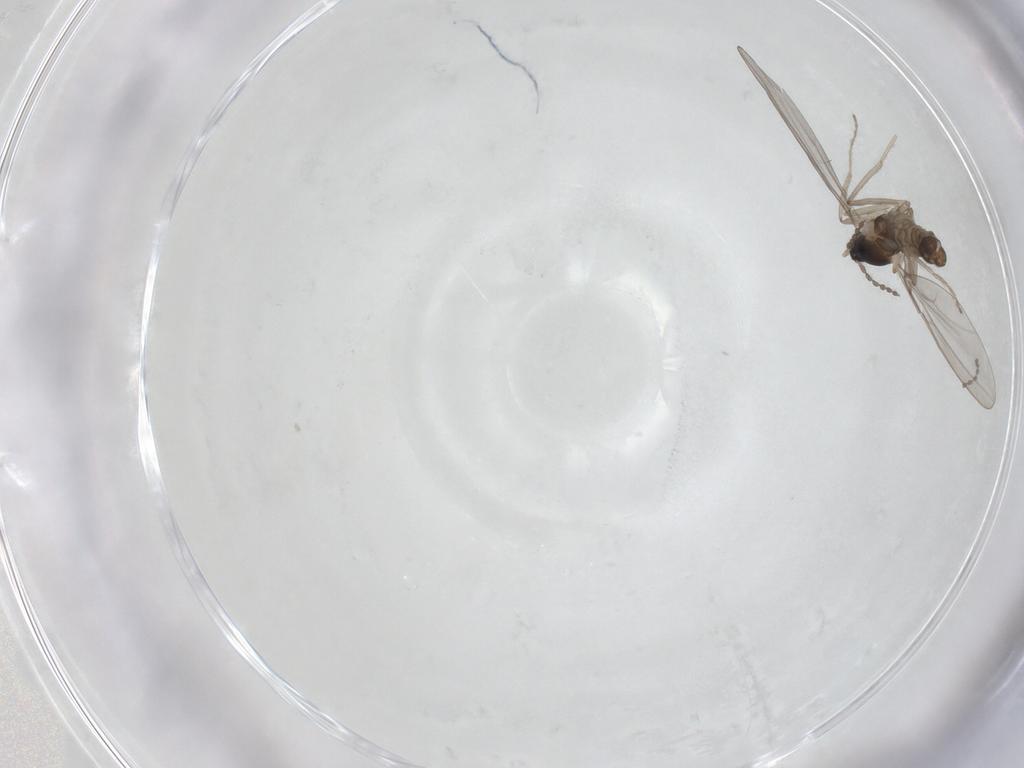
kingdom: Animalia
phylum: Arthropoda
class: Insecta
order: Diptera
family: Cecidomyiidae
